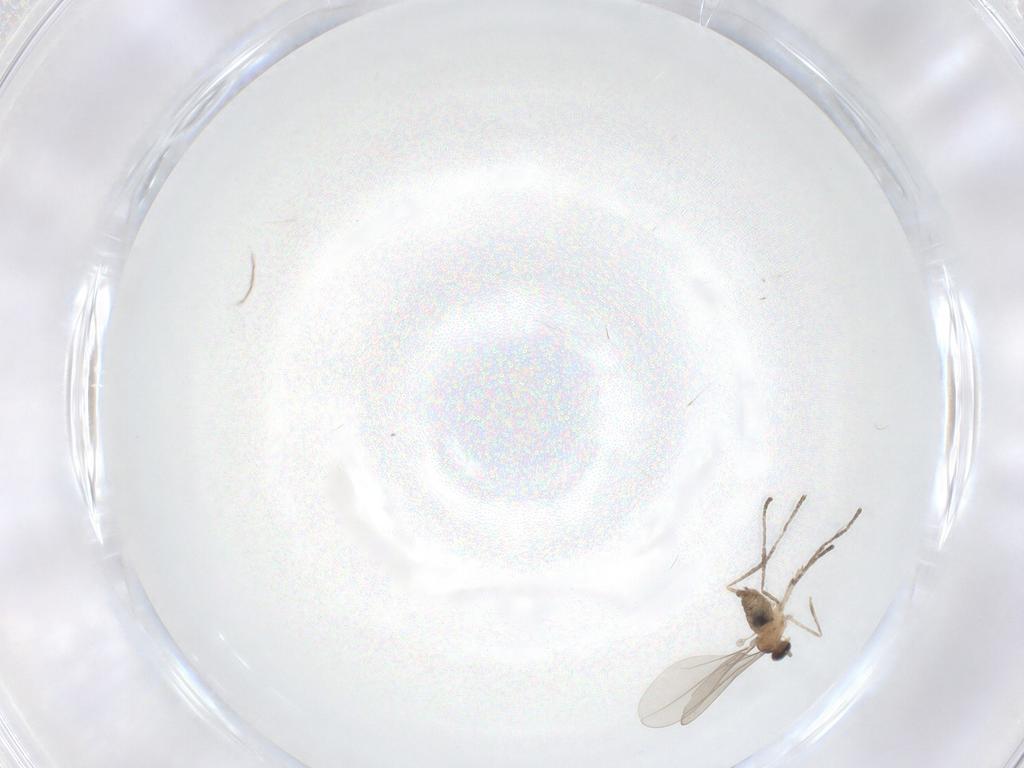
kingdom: Animalia
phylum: Arthropoda
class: Insecta
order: Diptera
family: Cecidomyiidae
